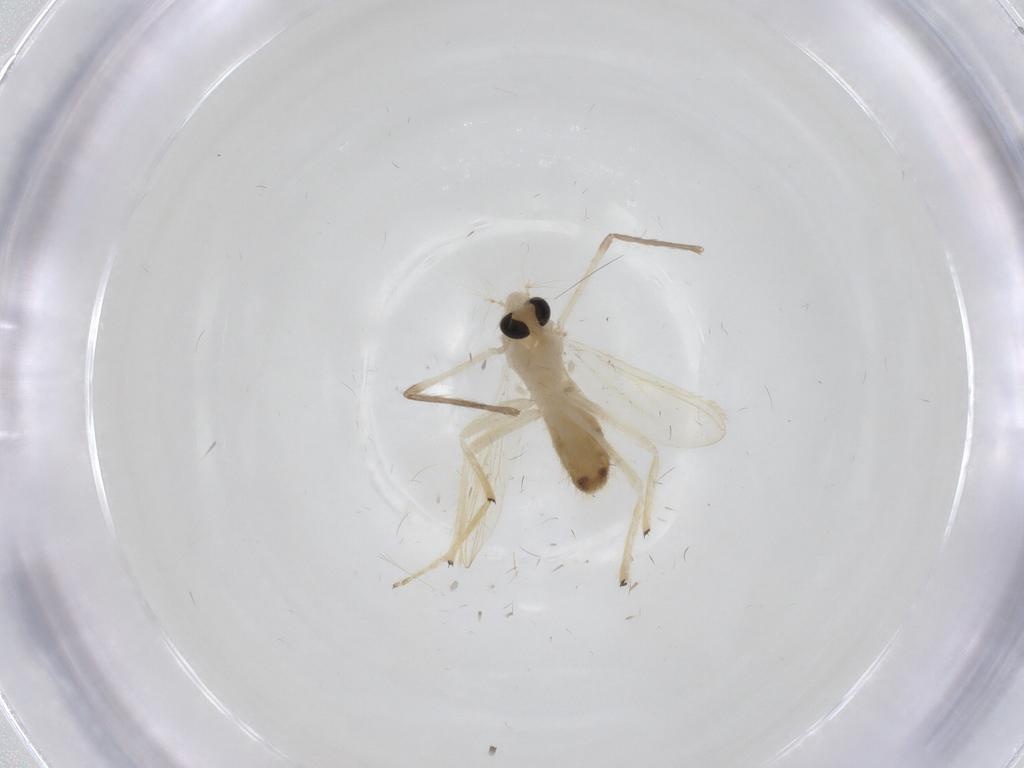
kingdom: Animalia
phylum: Arthropoda
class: Insecta
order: Diptera
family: Chironomidae
